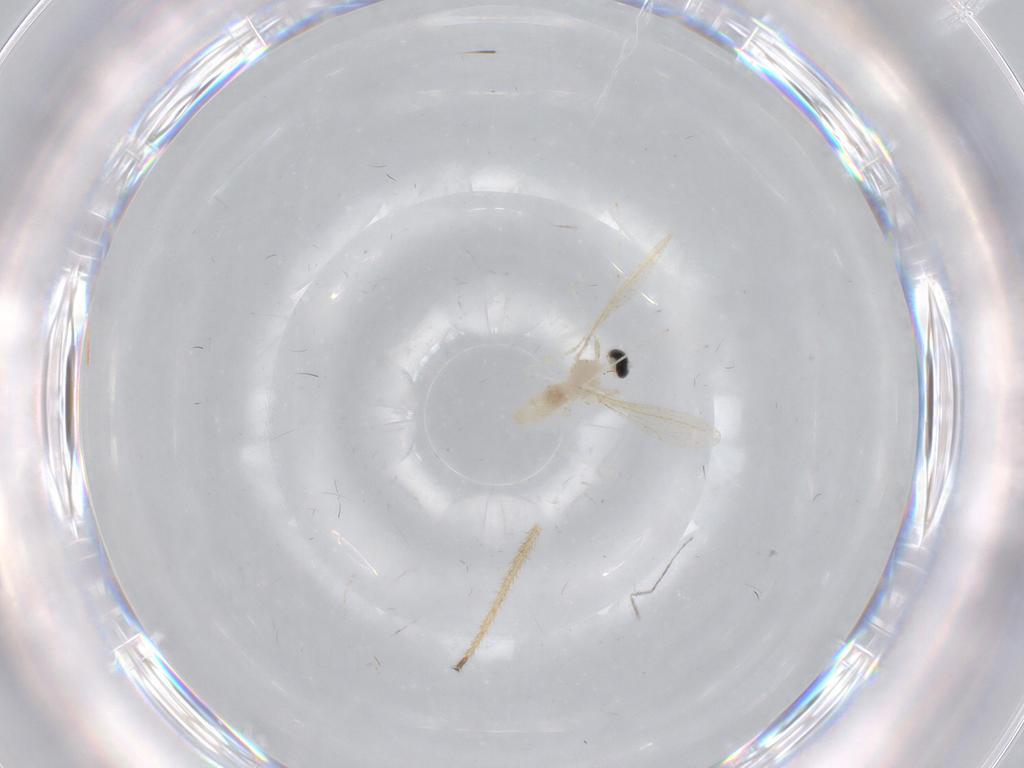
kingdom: Animalia
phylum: Arthropoda
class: Insecta
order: Diptera
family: Cecidomyiidae
